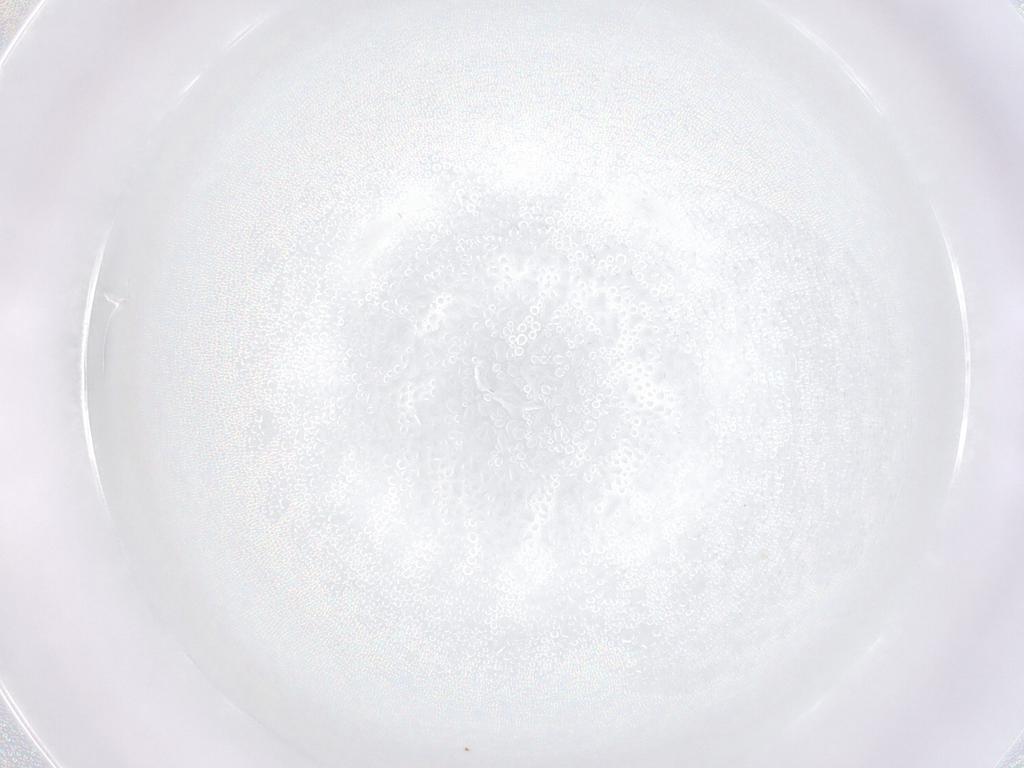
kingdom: Animalia
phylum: Arthropoda
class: Insecta
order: Diptera
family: Phoridae
